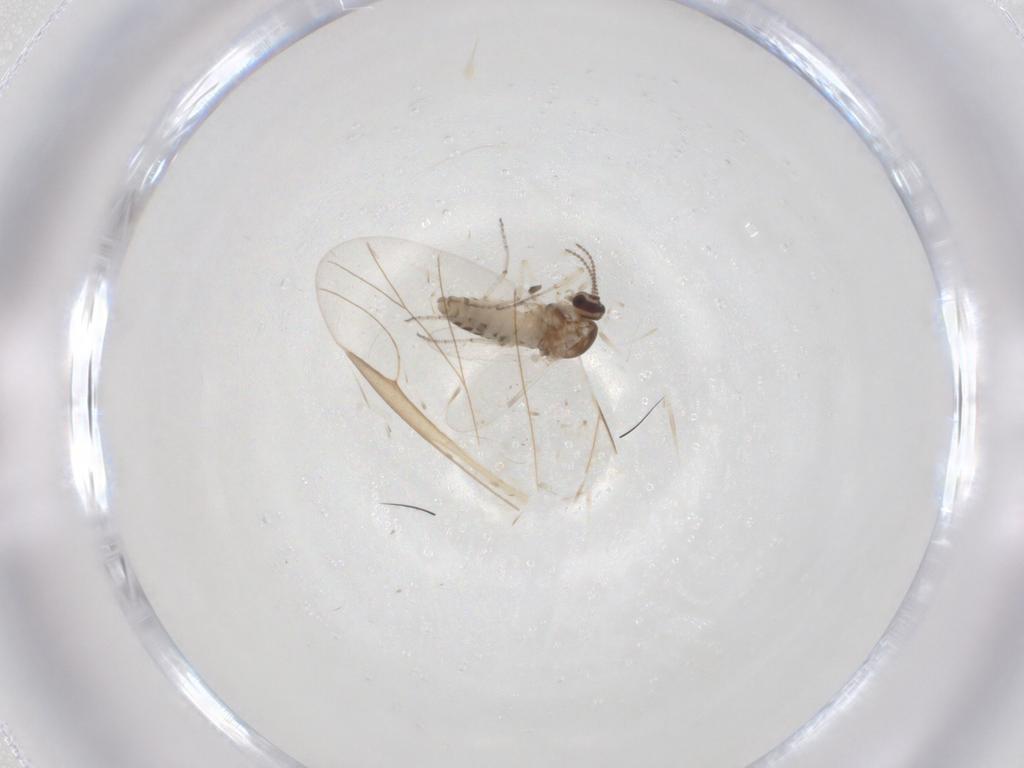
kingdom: Animalia
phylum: Arthropoda
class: Insecta
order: Diptera
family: Ceratopogonidae
